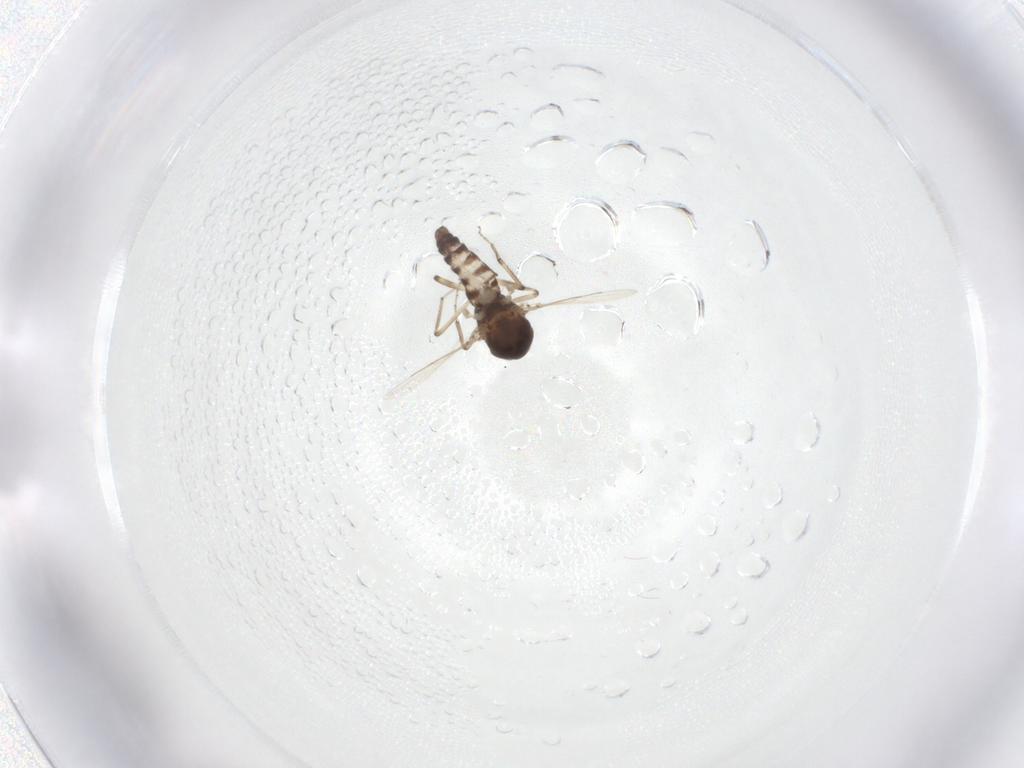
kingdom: Animalia
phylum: Arthropoda
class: Insecta
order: Diptera
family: Ceratopogonidae
